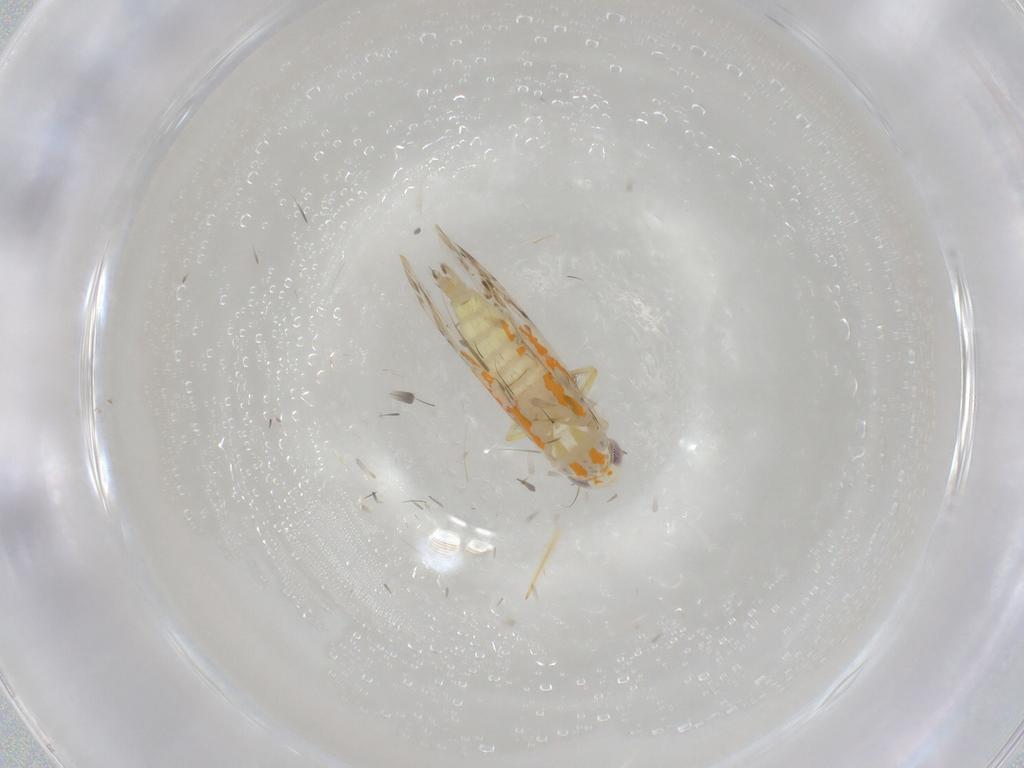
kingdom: Animalia
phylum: Arthropoda
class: Insecta
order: Hemiptera
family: Cicadellidae
